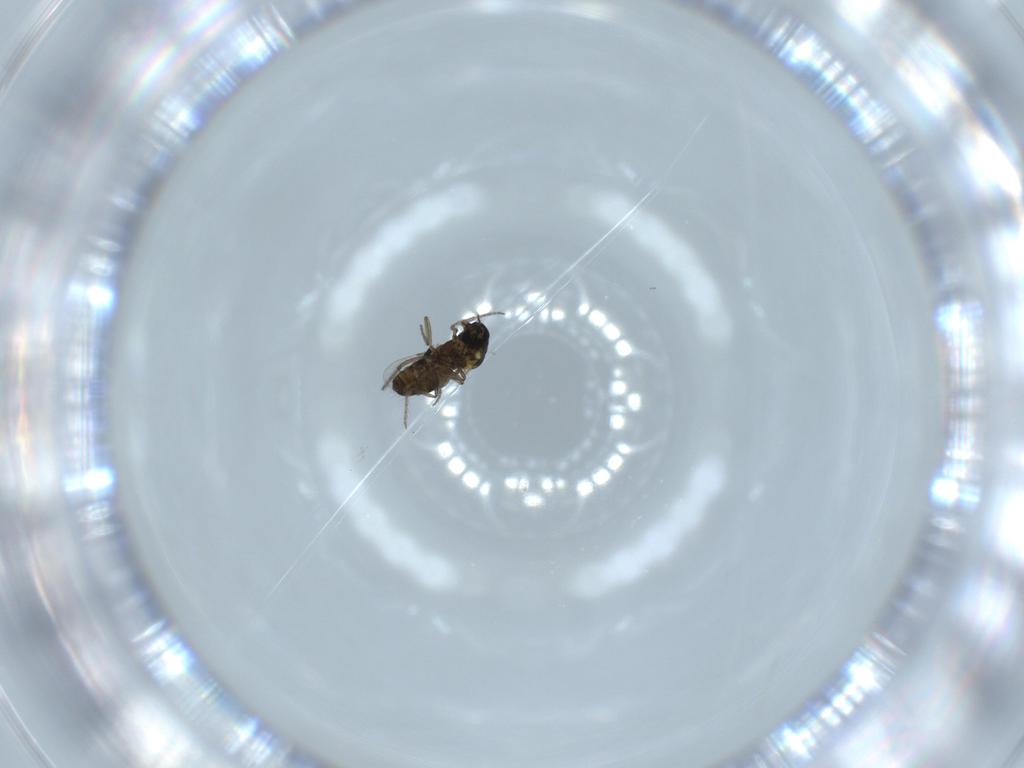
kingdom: Animalia
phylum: Arthropoda
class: Insecta
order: Diptera
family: Cecidomyiidae
